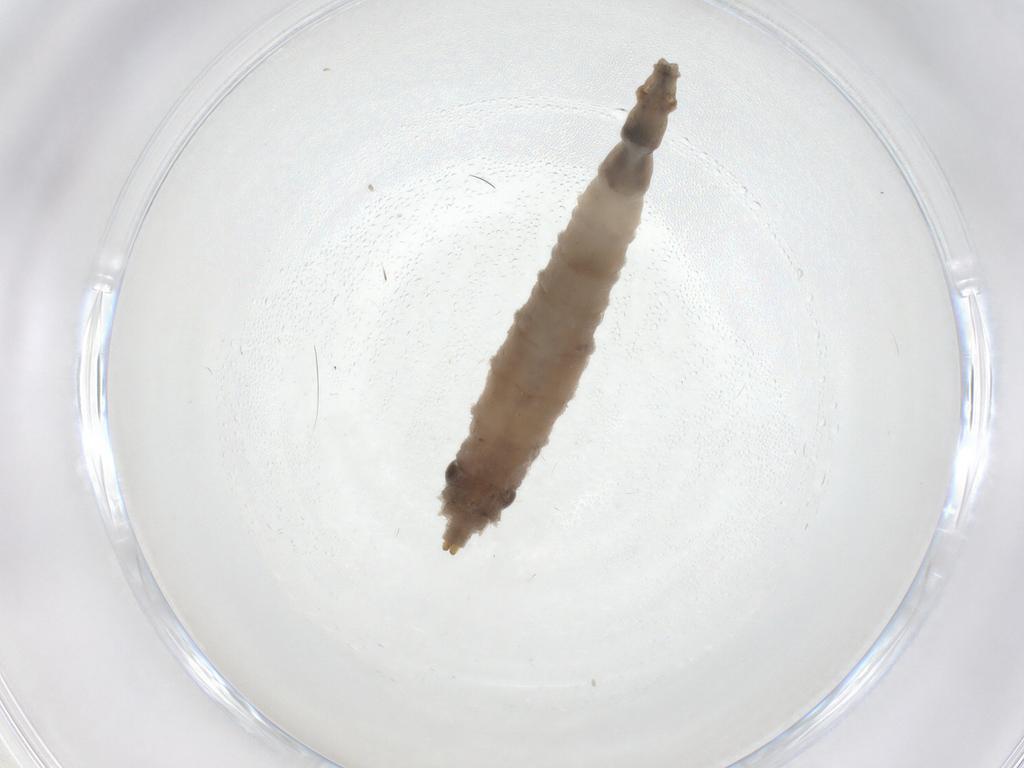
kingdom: Animalia
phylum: Arthropoda
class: Insecta
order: Diptera
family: Drosophilidae
